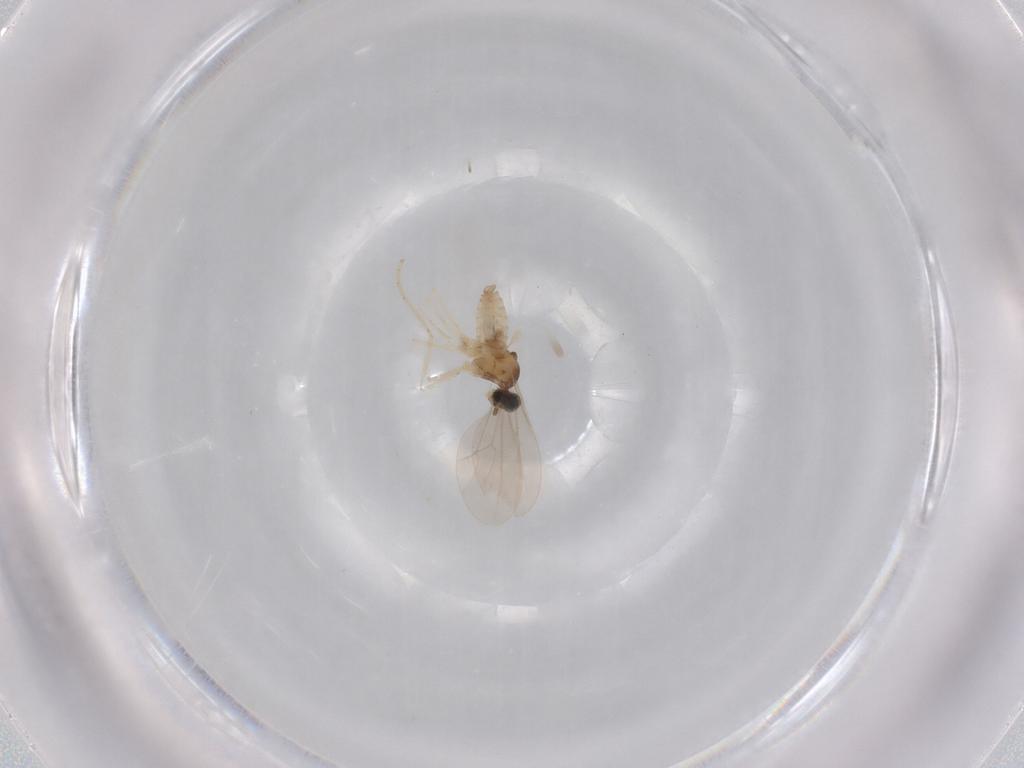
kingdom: Animalia
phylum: Arthropoda
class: Insecta
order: Diptera
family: Cecidomyiidae
